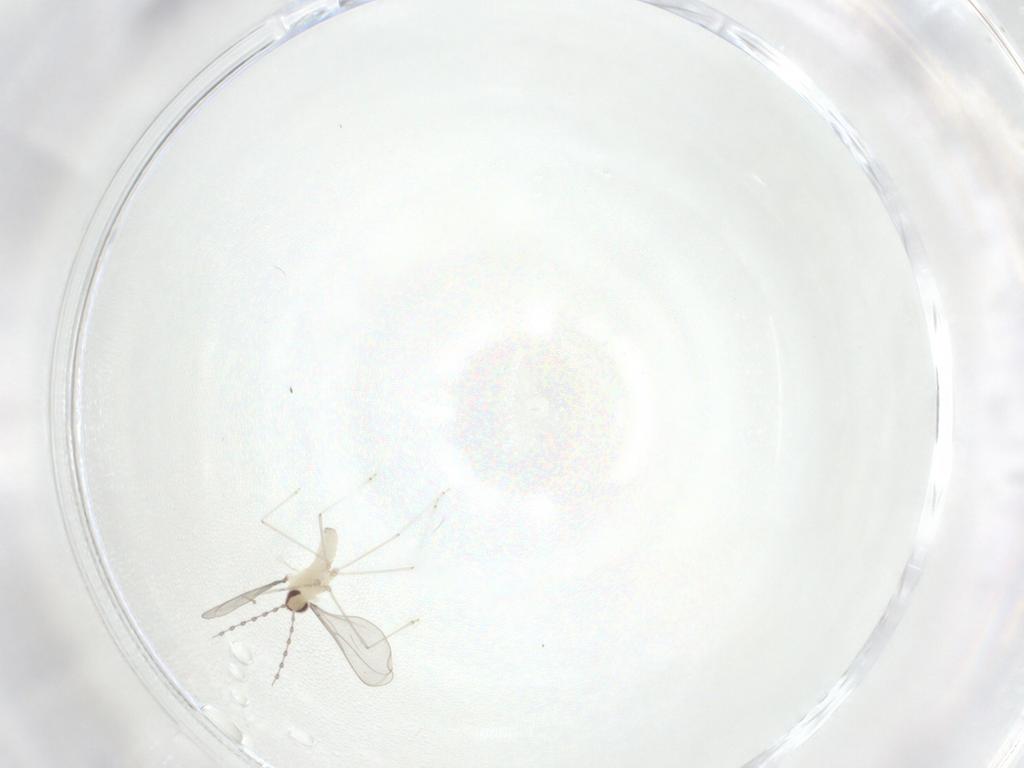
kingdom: Animalia
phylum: Arthropoda
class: Insecta
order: Diptera
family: Cecidomyiidae
